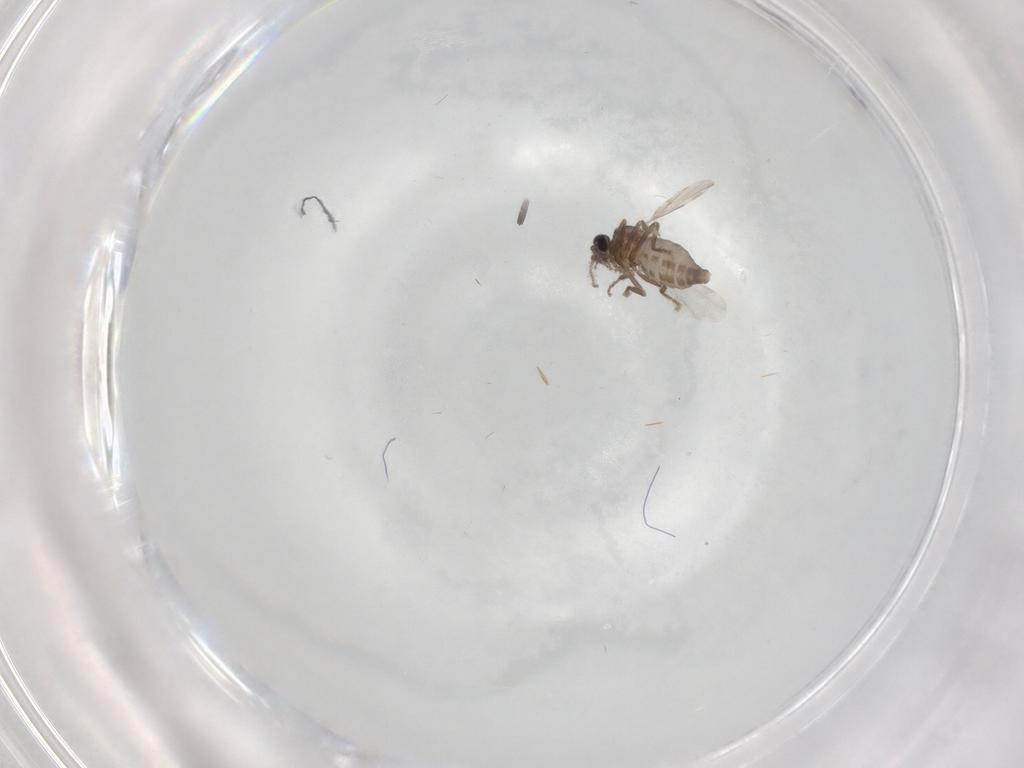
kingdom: Animalia
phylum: Arthropoda
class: Insecta
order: Diptera
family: Ceratopogonidae
